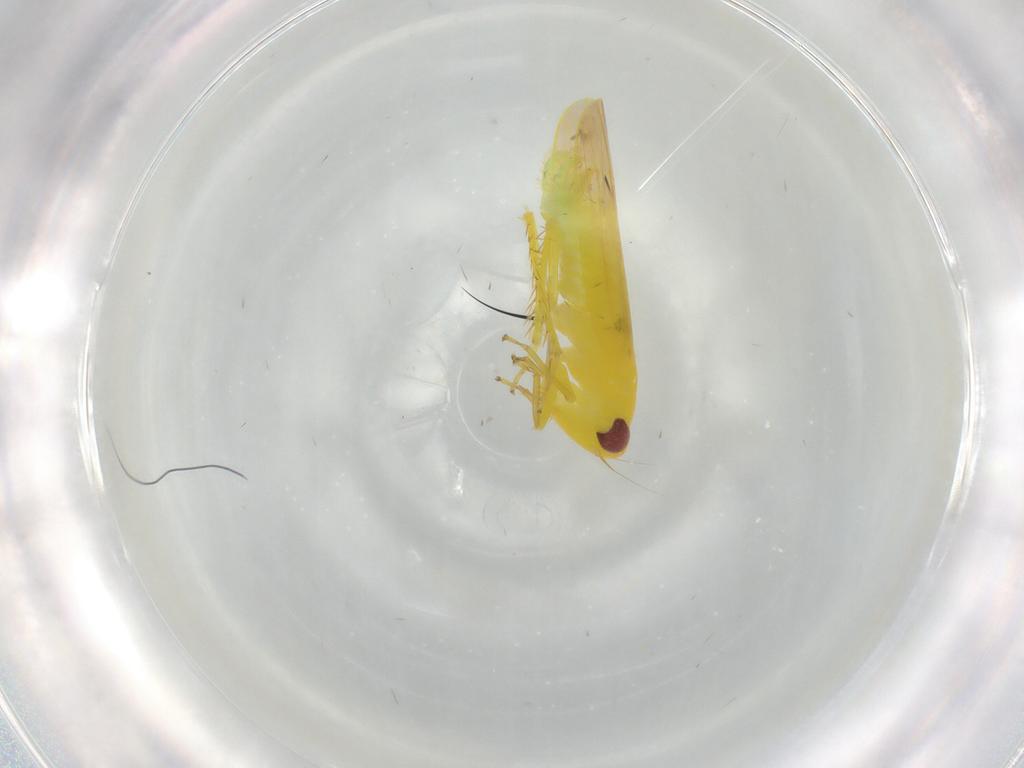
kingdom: Animalia
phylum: Arthropoda
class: Insecta
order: Hemiptera
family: Cicadellidae
